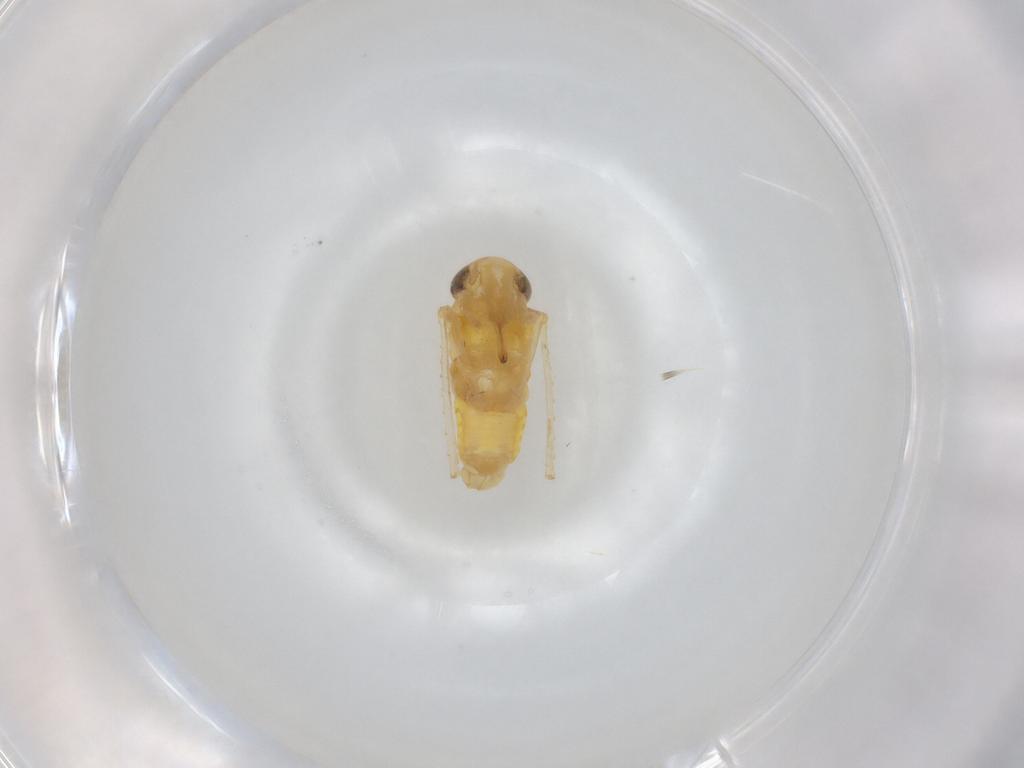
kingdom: Animalia
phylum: Arthropoda
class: Insecta
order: Hemiptera
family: Cicadellidae
